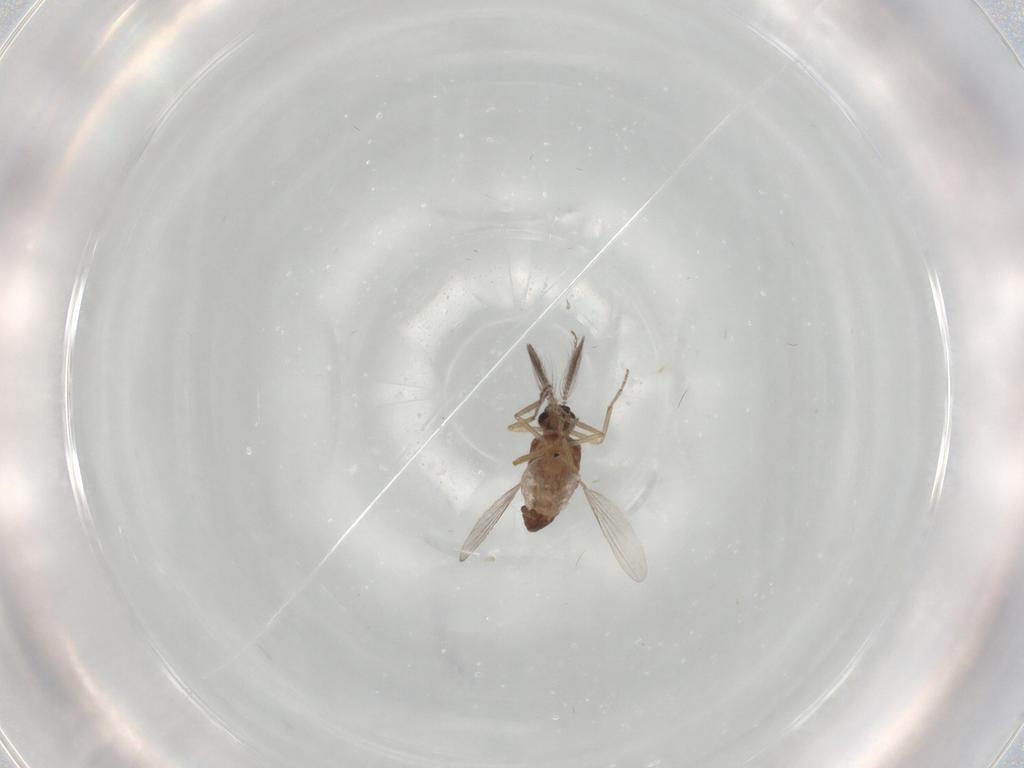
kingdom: Animalia
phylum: Arthropoda
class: Insecta
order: Diptera
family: Ceratopogonidae
